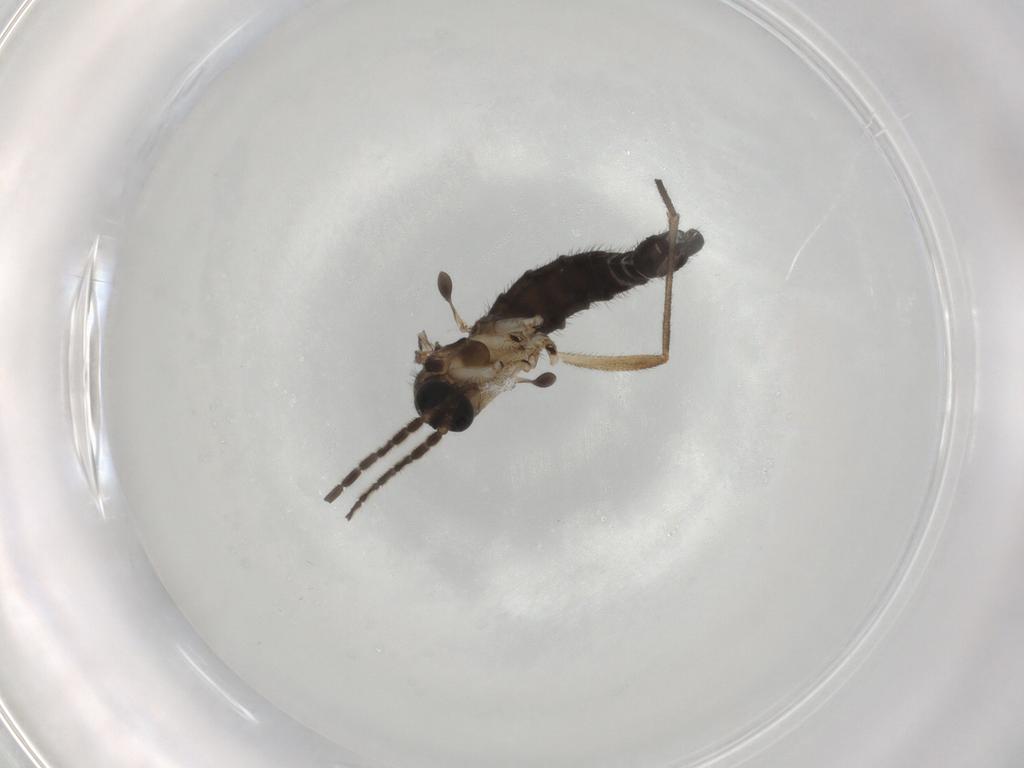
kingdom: Animalia
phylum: Arthropoda
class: Insecta
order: Diptera
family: Sciaridae
